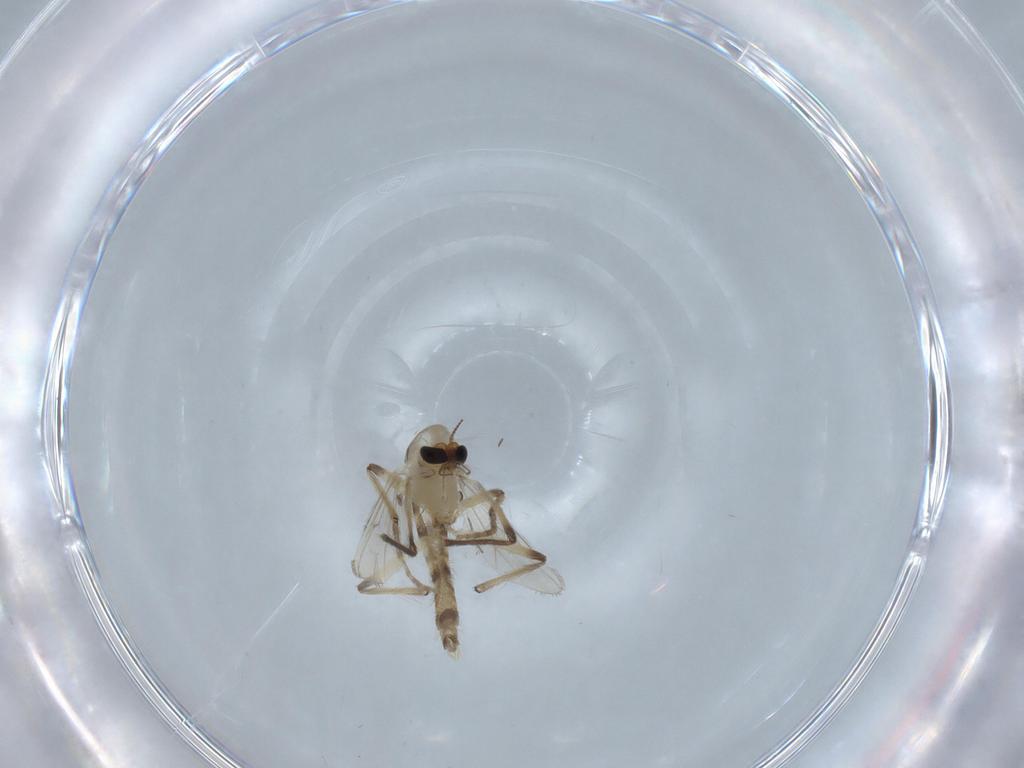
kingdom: Animalia
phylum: Arthropoda
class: Insecta
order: Diptera
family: Chironomidae
